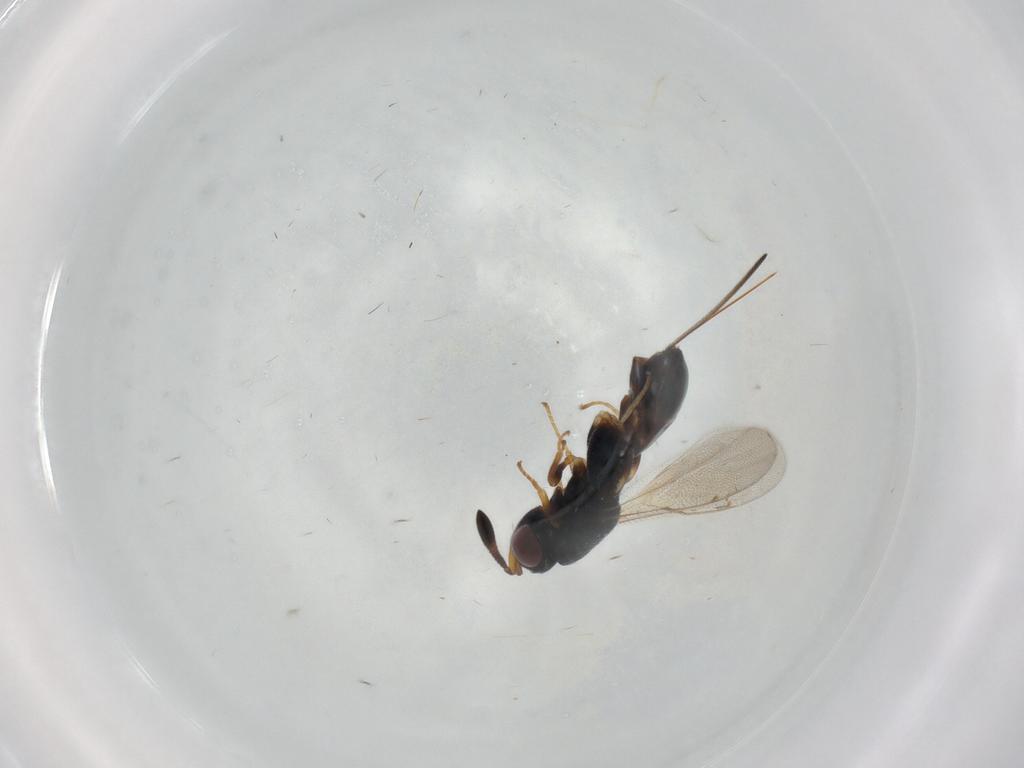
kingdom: Animalia
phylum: Arthropoda
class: Insecta
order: Hymenoptera
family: Torymidae
